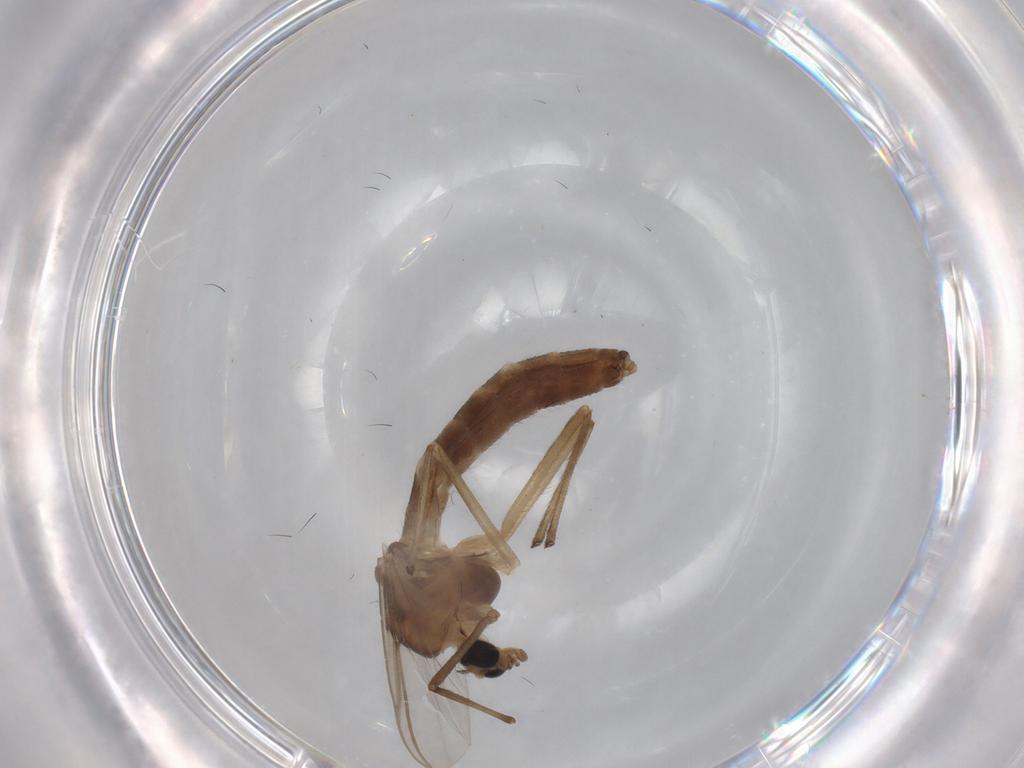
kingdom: Animalia
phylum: Arthropoda
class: Insecta
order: Diptera
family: Chironomidae
